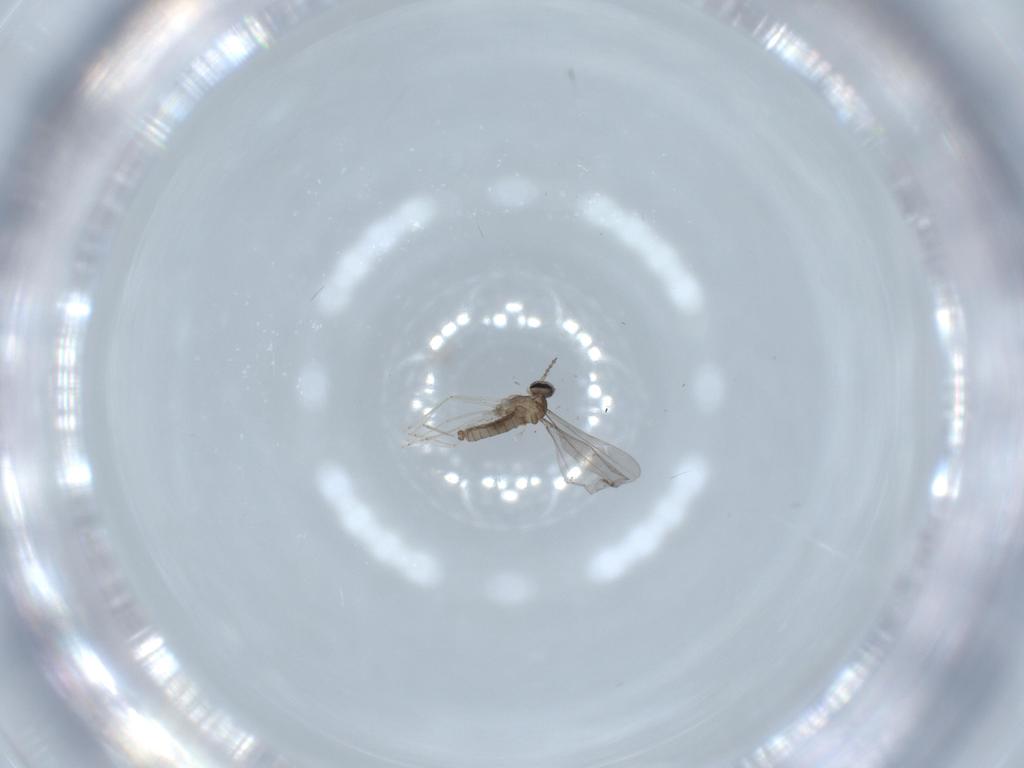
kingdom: Animalia
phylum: Arthropoda
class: Insecta
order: Diptera
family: Cecidomyiidae
